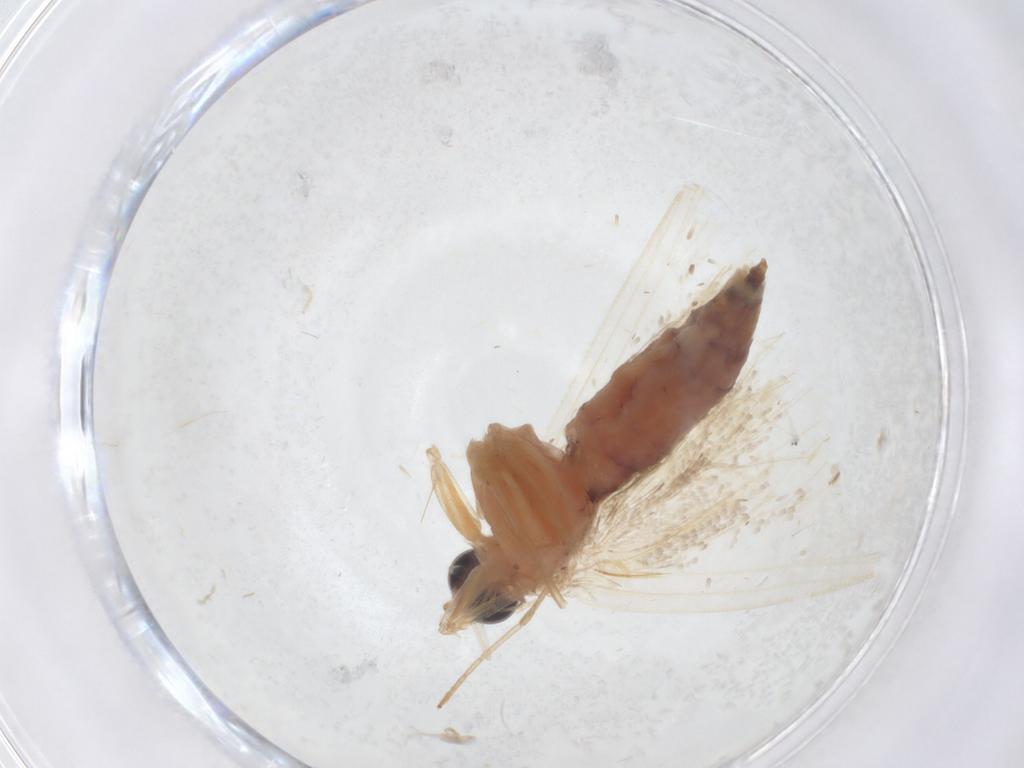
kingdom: Animalia
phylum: Arthropoda
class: Insecta
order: Lepidoptera
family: Crambidae
